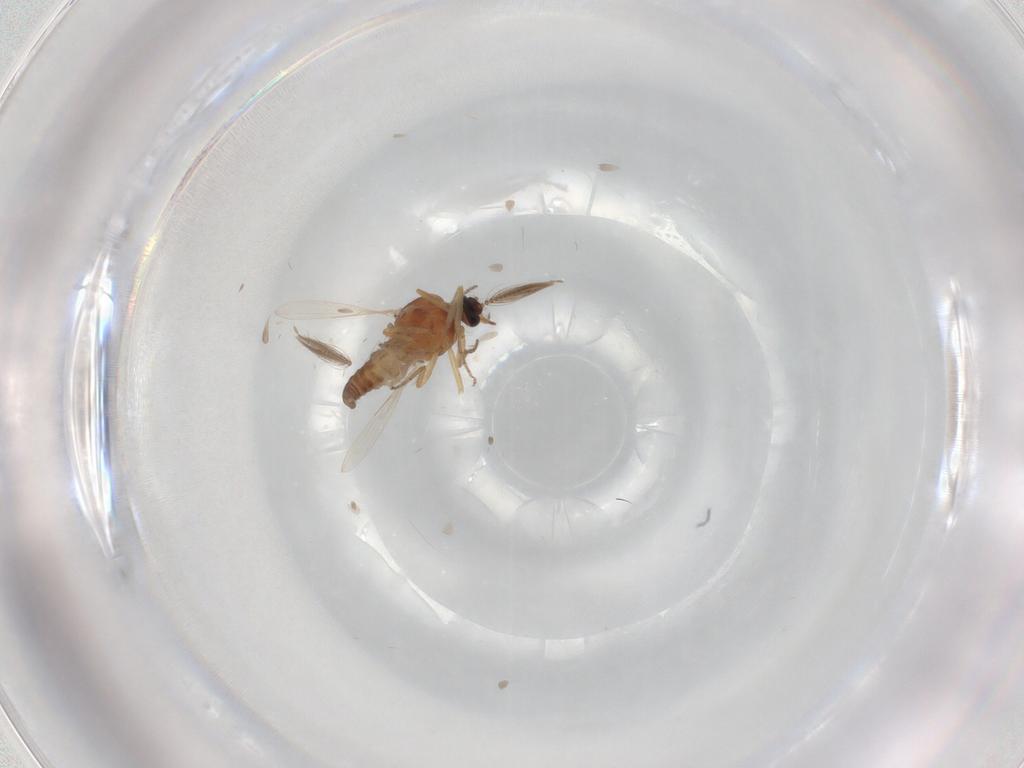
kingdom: Animalia
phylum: Arthropoda
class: Insecta
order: Diptera
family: Ceratopogonidae
